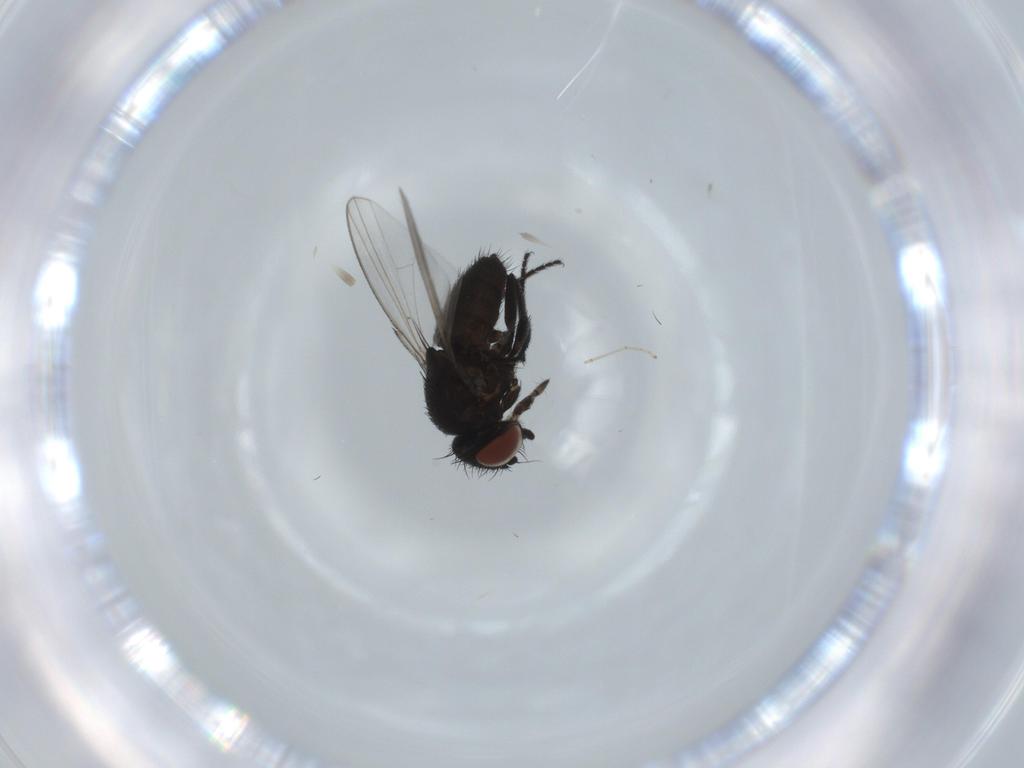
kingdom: Animalia
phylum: Arthropoda
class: Insecta
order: Diptera
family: Milichiidae
